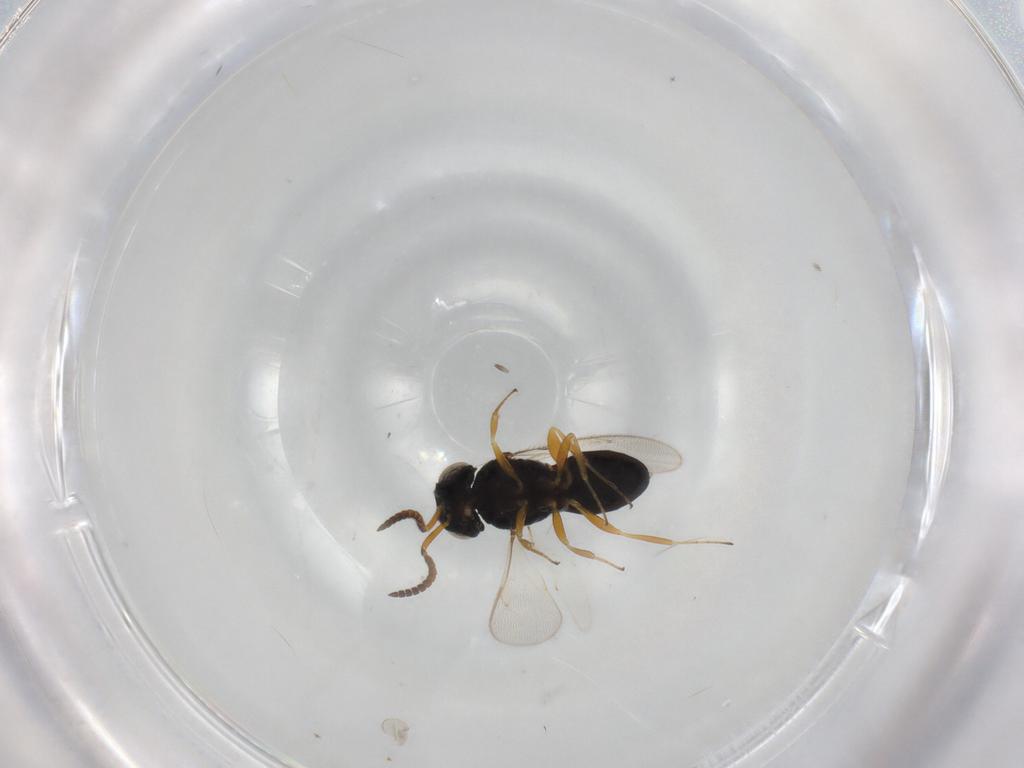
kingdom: Animalia
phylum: Arthropoda
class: Insecta
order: Hymenoptera
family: Scelionidae
